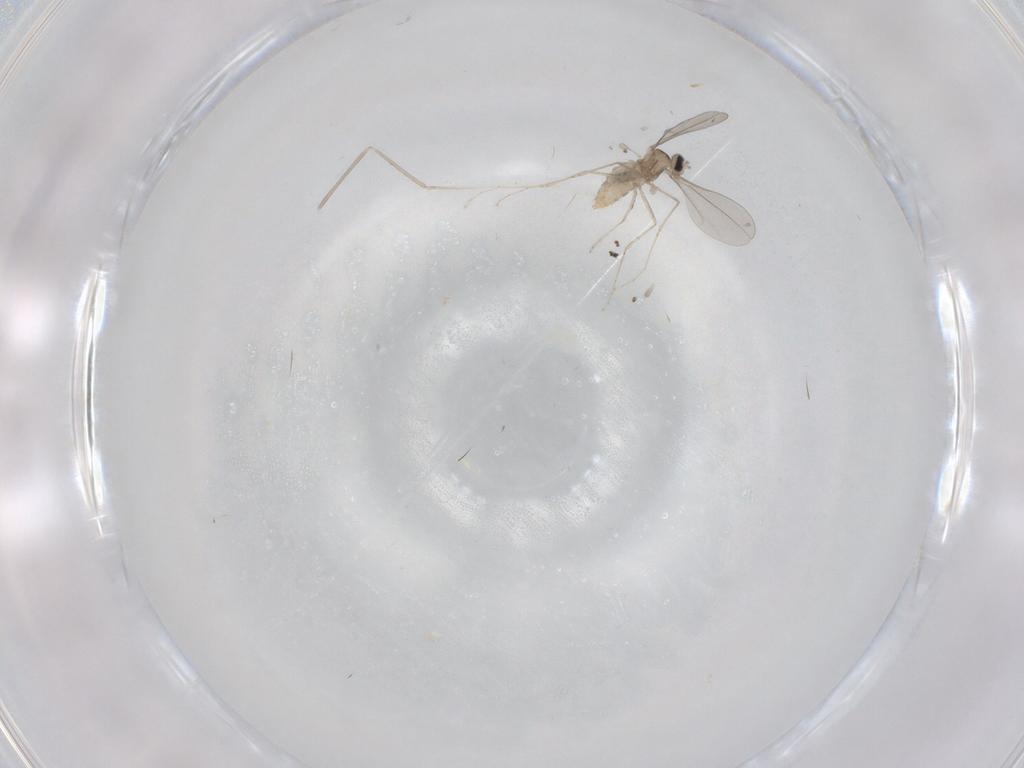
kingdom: Animalia
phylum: Arthropoda
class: Insecta
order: Diptera
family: Cecidomyiidae
